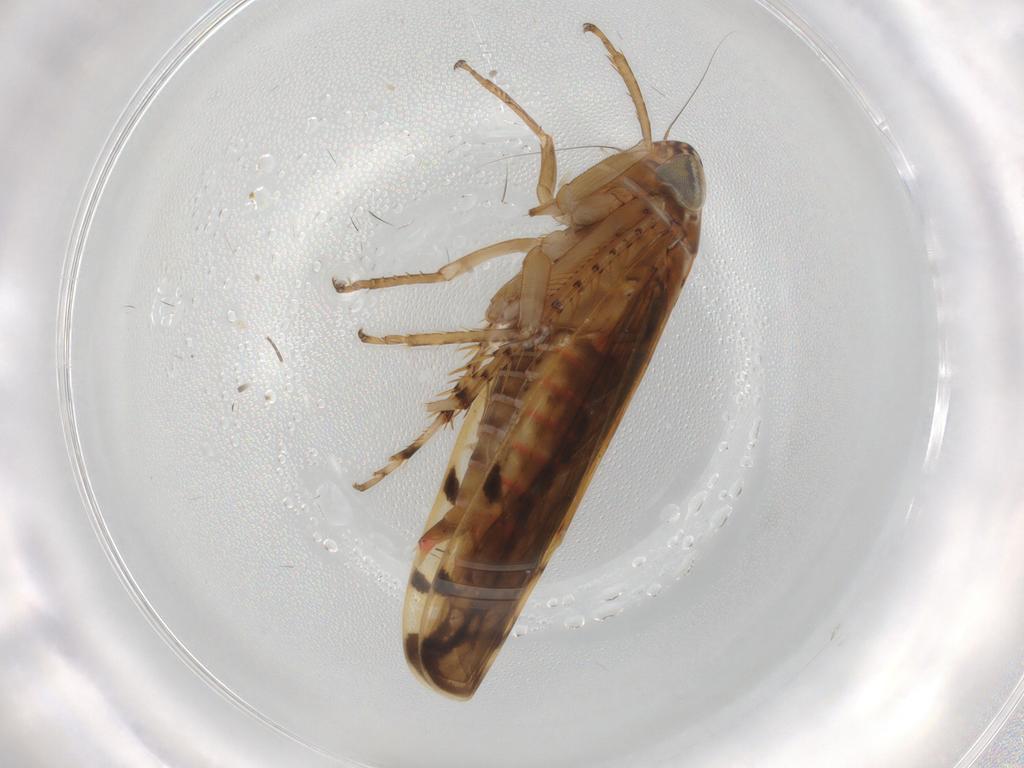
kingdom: Animalia
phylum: Arthropoda
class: Insecta
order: Hemiptera
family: Cicadellidae
